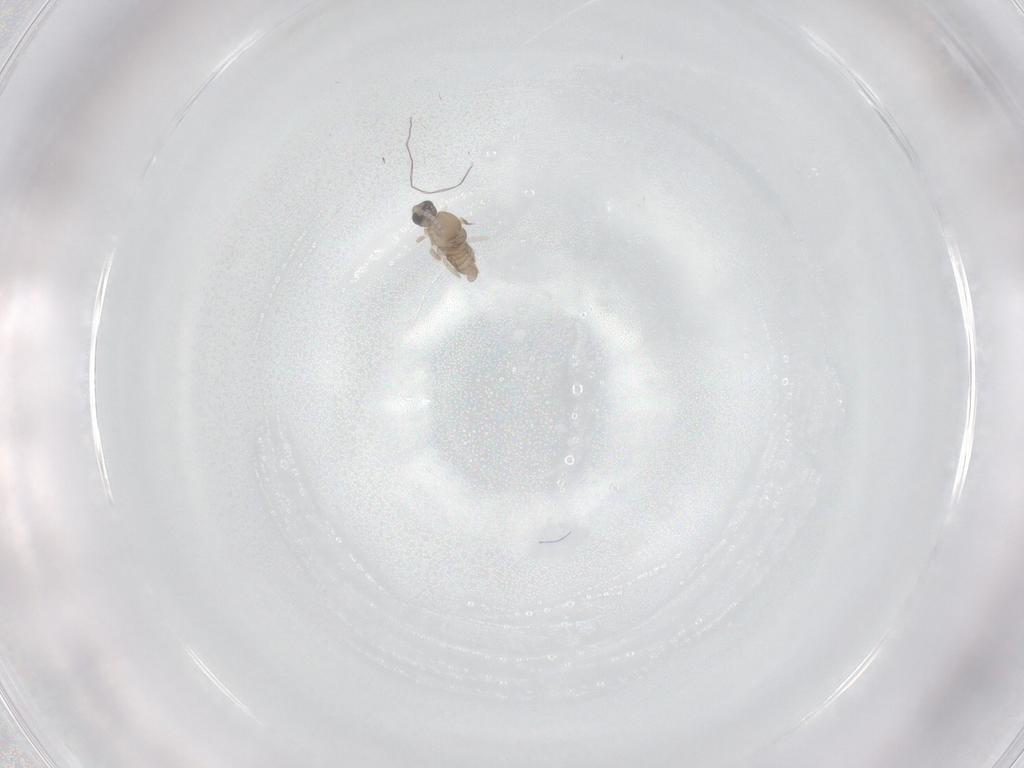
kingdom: Animalia
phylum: Arthropoda
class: Insecta
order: Diptera
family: Cecidomyiidae
